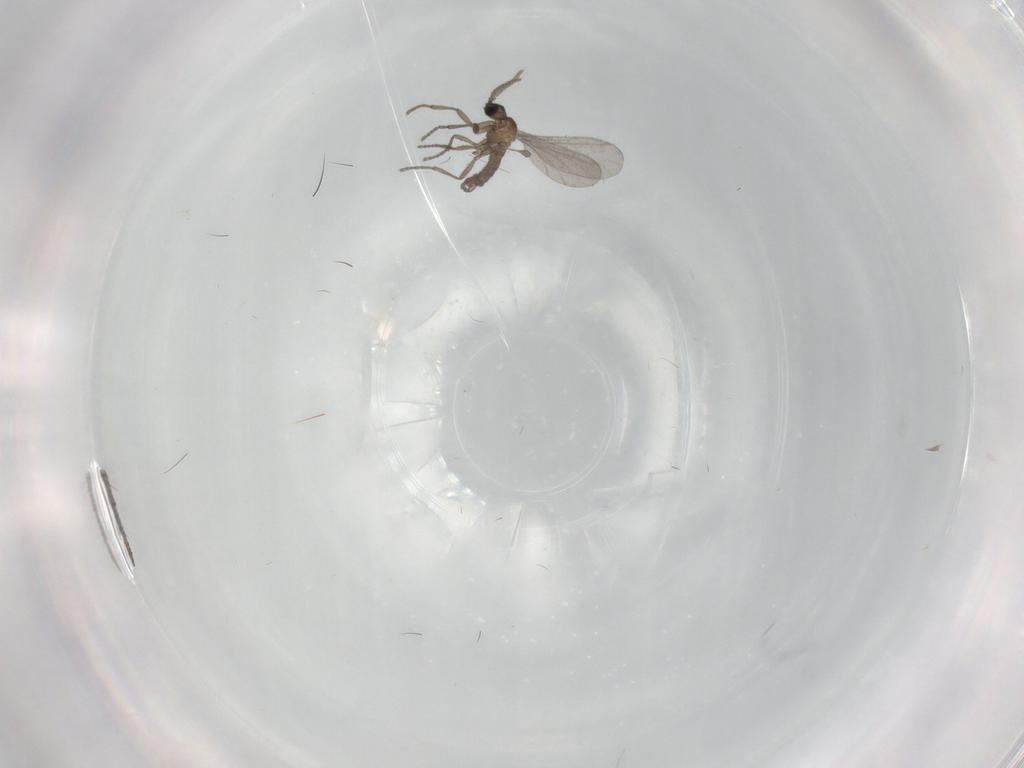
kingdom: Animalia
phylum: Arthropoda
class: Insecta
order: Diptera
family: Sciaridae
